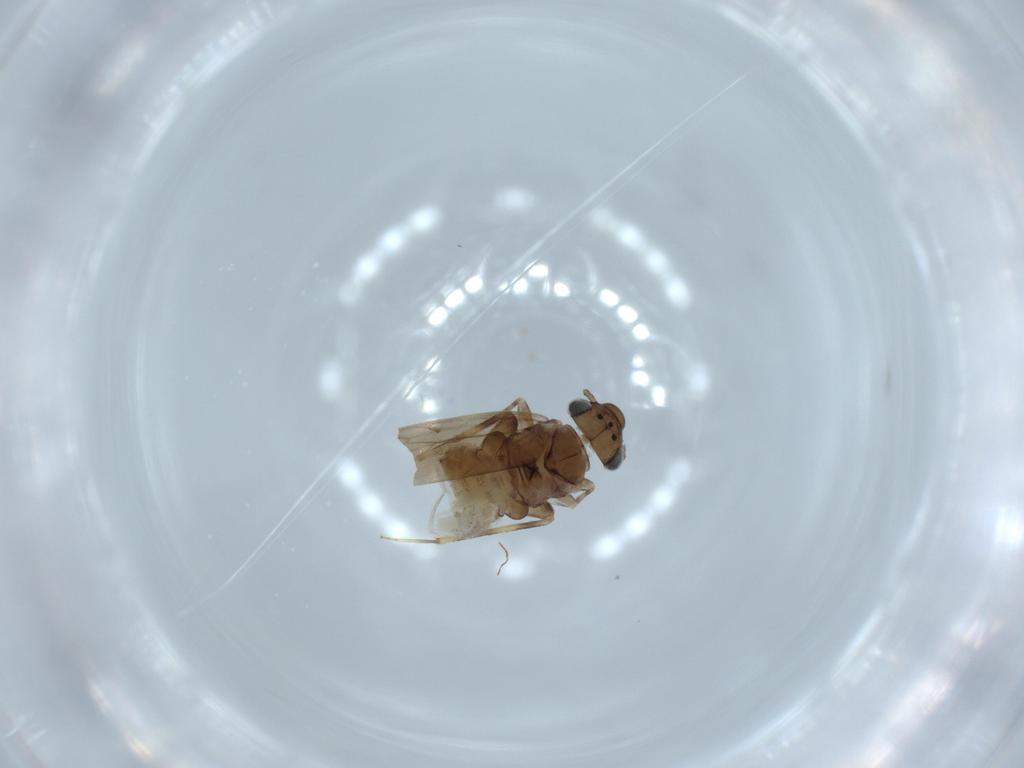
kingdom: Animalia
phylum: Arthropoda
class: Insecta
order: Psocodea
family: Lepidopsocidae
